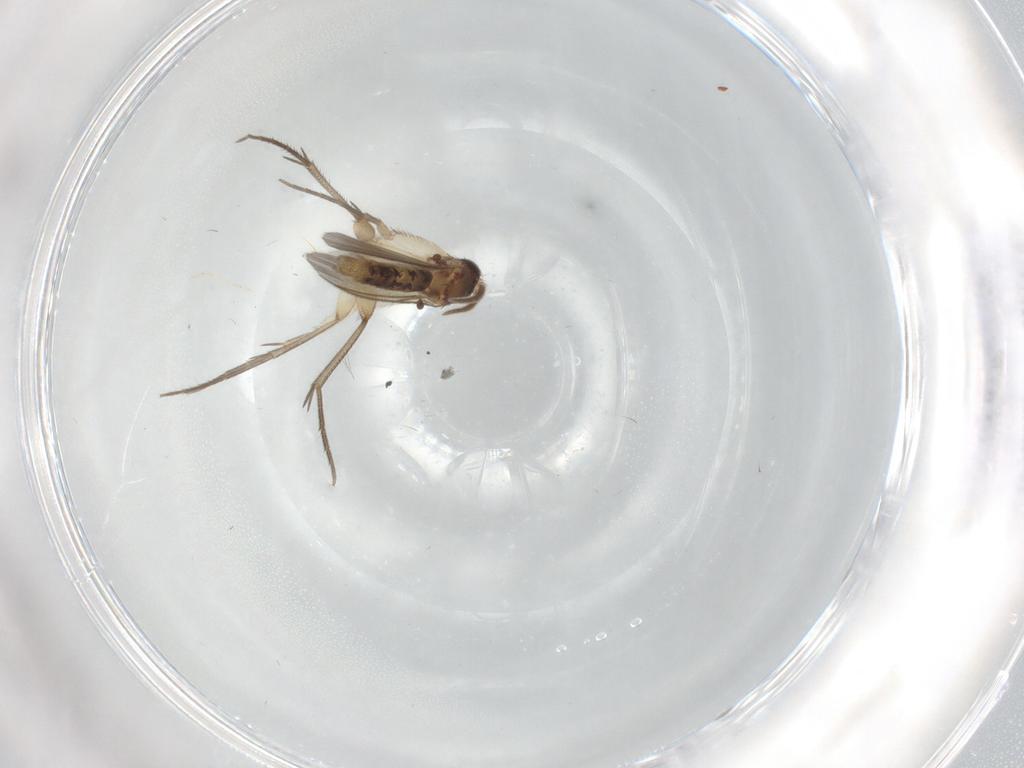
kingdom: Animalia
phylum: Arthropoda
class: Insecta
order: Diptera
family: Mycetophilidae
